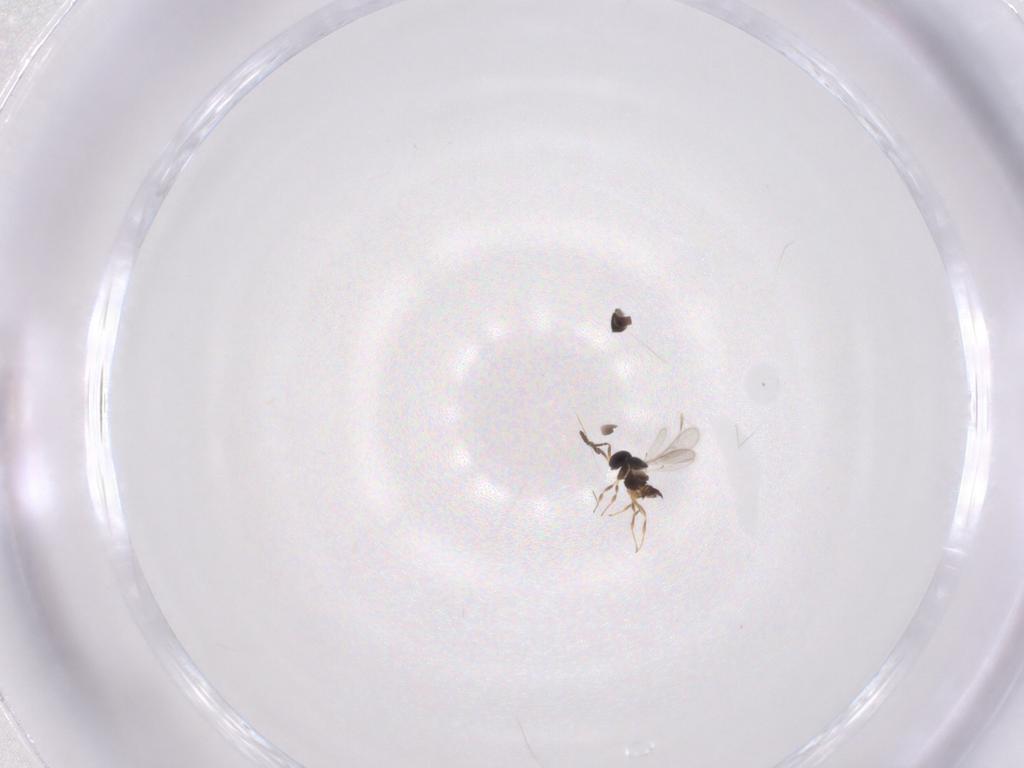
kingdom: Animalia
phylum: Arthropoda
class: Insecta
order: Hymenoptera
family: Scelionidae
